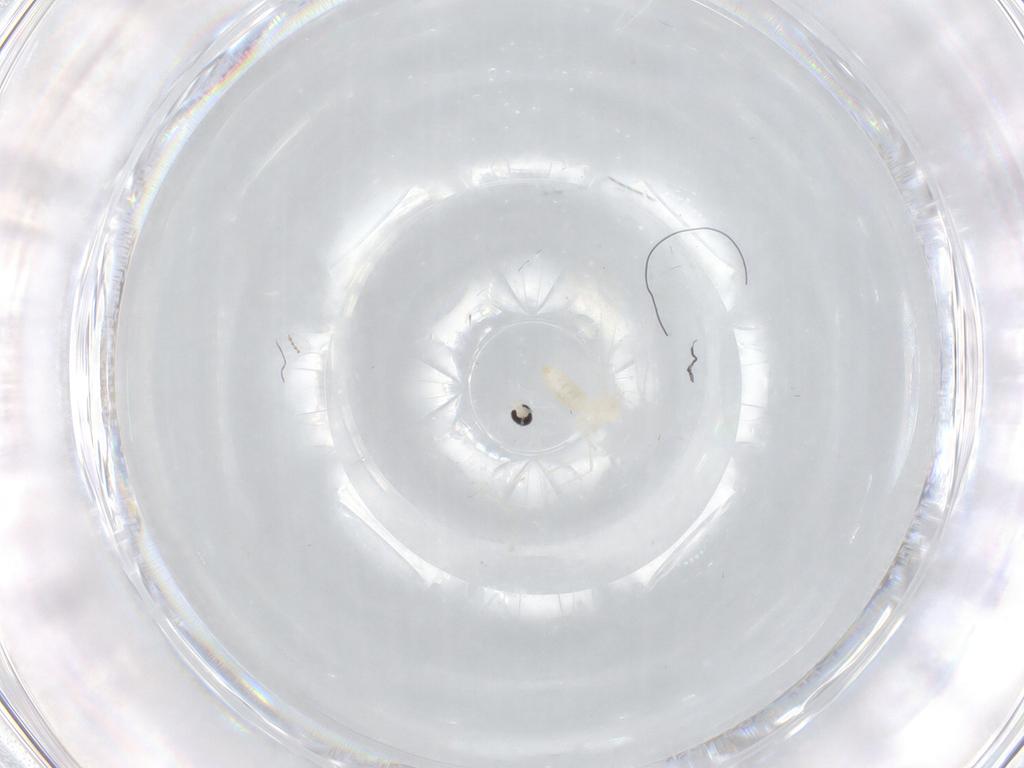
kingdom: Animalia
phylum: Arthropoda
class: Insecta
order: Diptera
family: Cecidomyiidae
